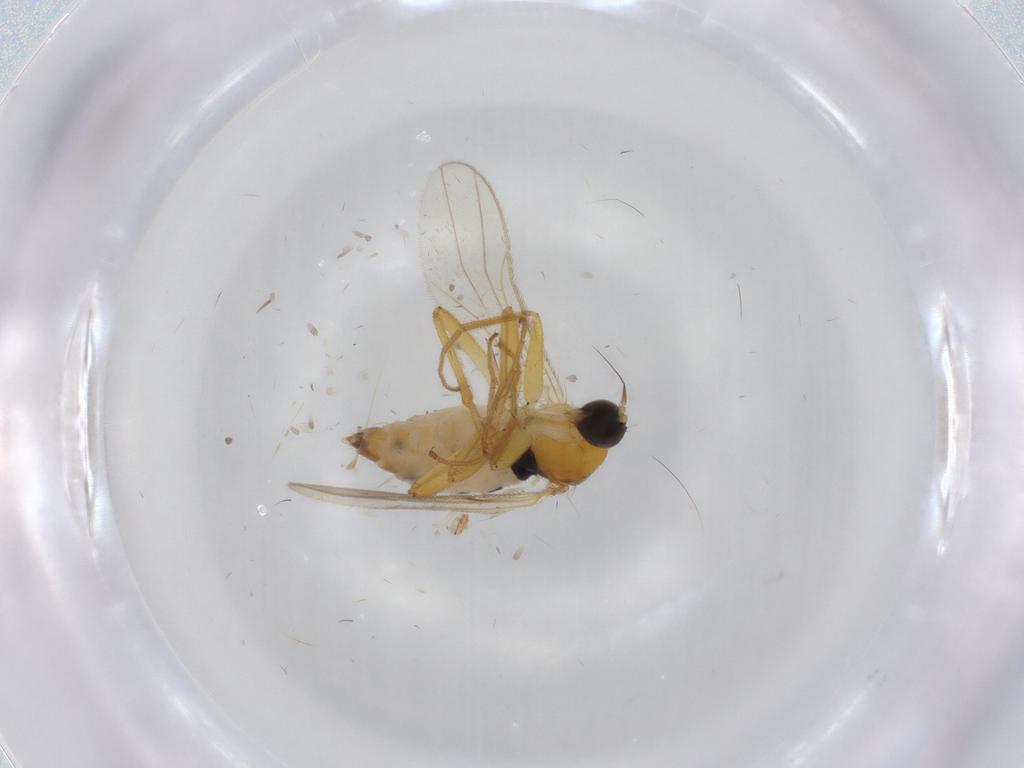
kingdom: Animalia
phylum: Arthropoda
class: Insecta
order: Diptera
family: Hybotidae
